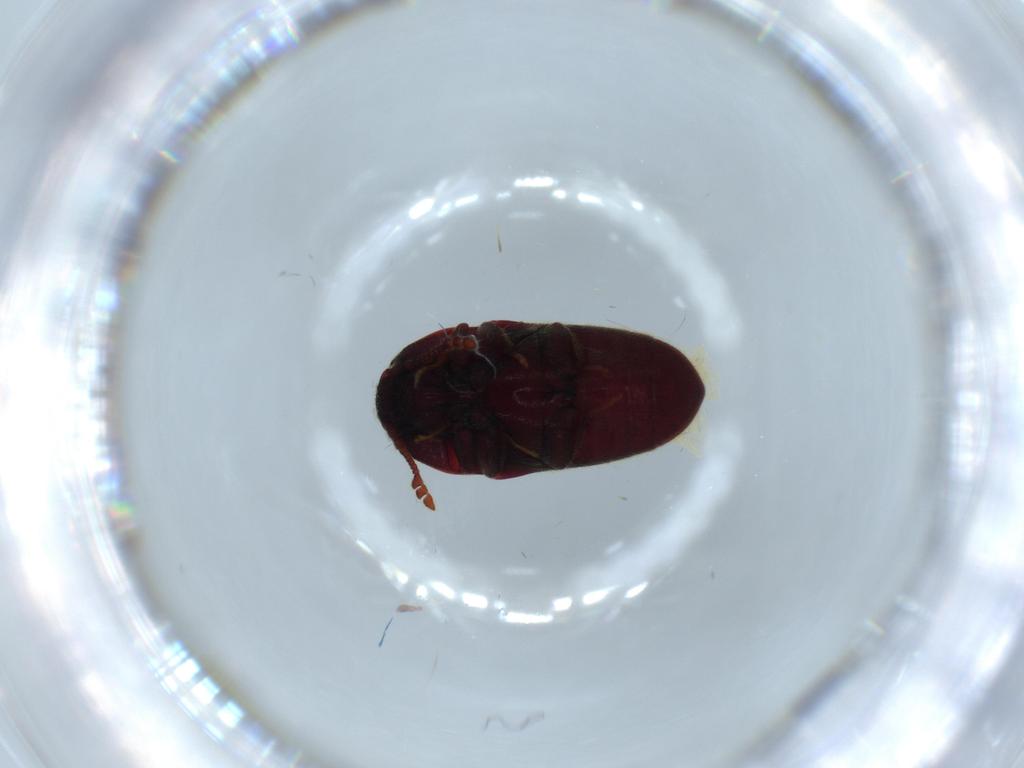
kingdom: Animalia
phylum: Arthropoda
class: Insecta
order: Coleoptera
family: Throscidae
